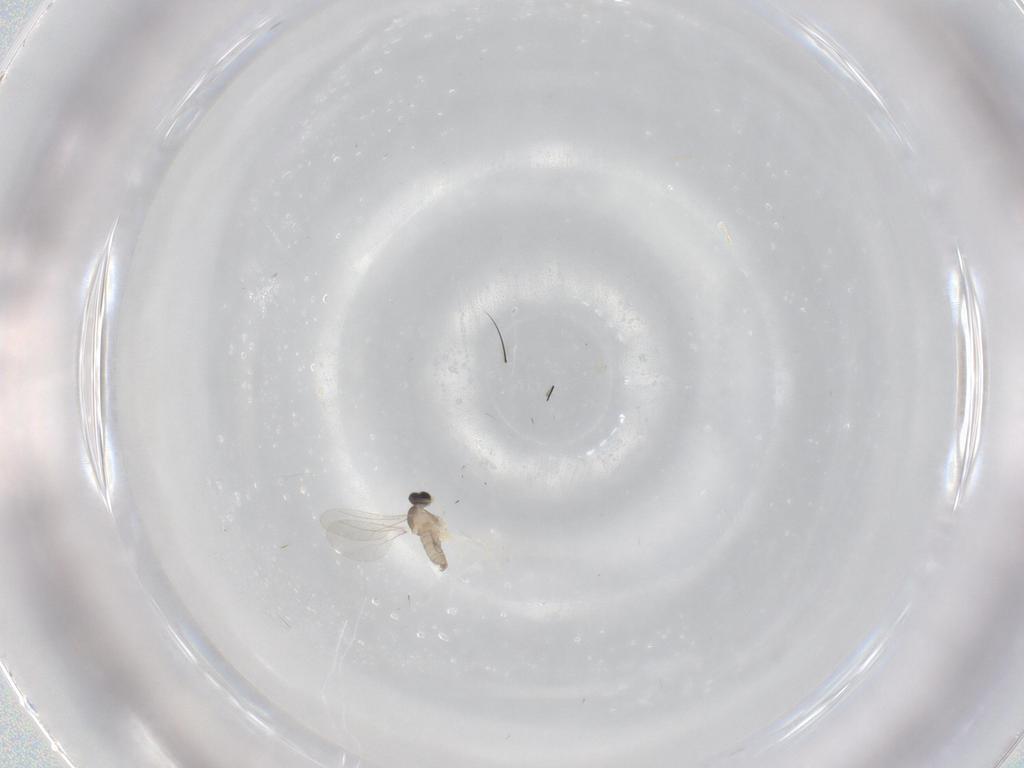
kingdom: Animalia
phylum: Arthropoda
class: Insecta
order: Diptera
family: Cecidomyiidae
